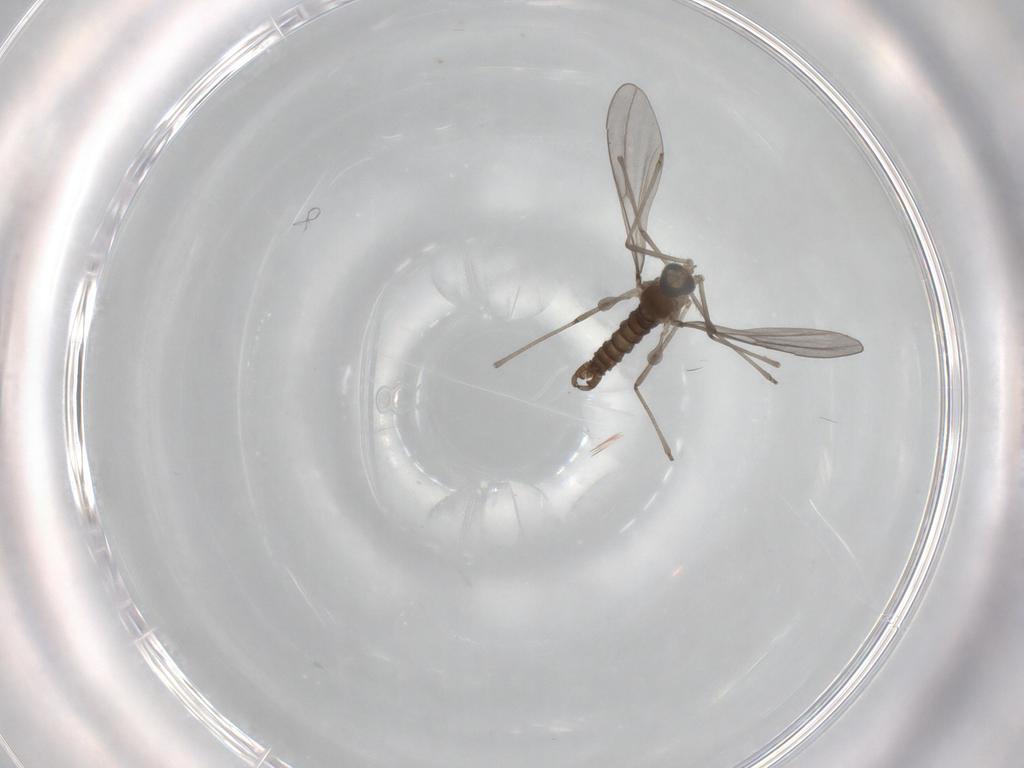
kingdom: Animalia
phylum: Arthropoda
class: Insecta
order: Diptera
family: Cecidomyiidae
